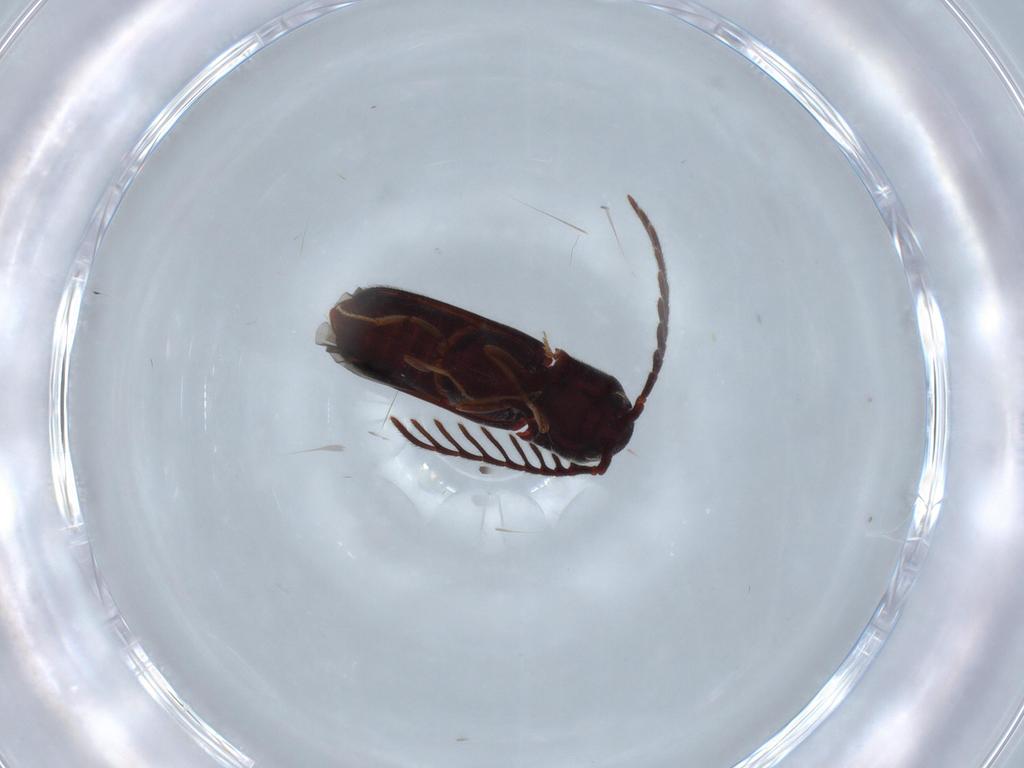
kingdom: Animalia
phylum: Arthropoda
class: Insecta
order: Coleoptera
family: Eucnemidae
